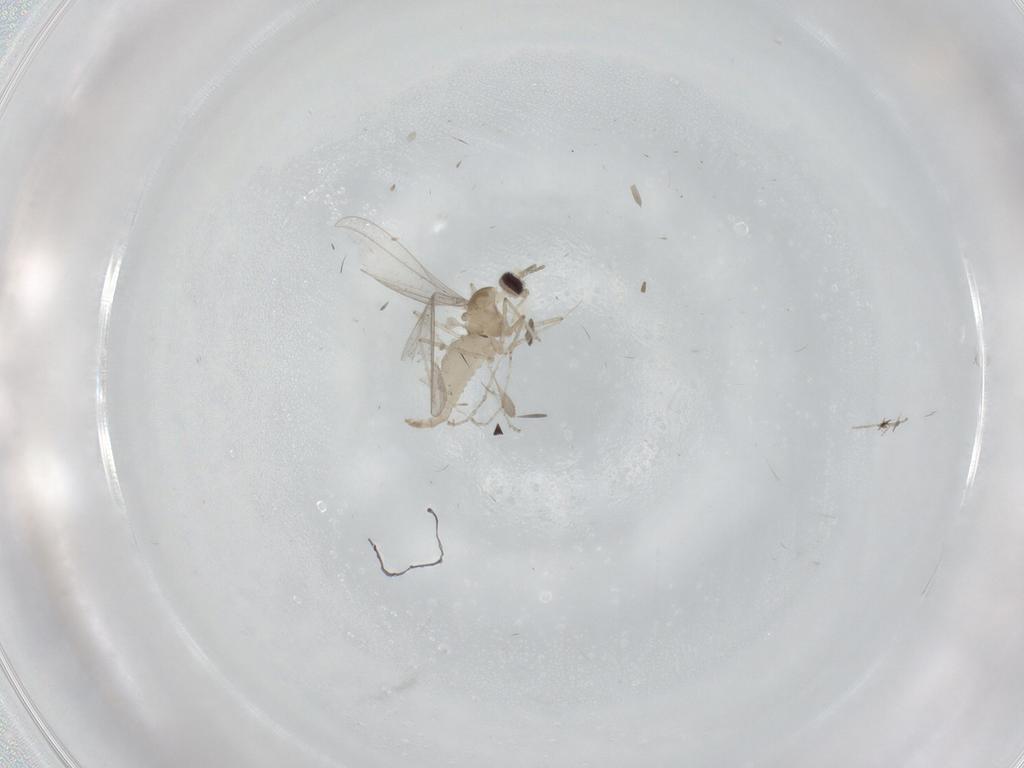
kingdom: Animalia
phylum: Arthropoda
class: Insecta
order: Diptera
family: Cecidomyiidae
